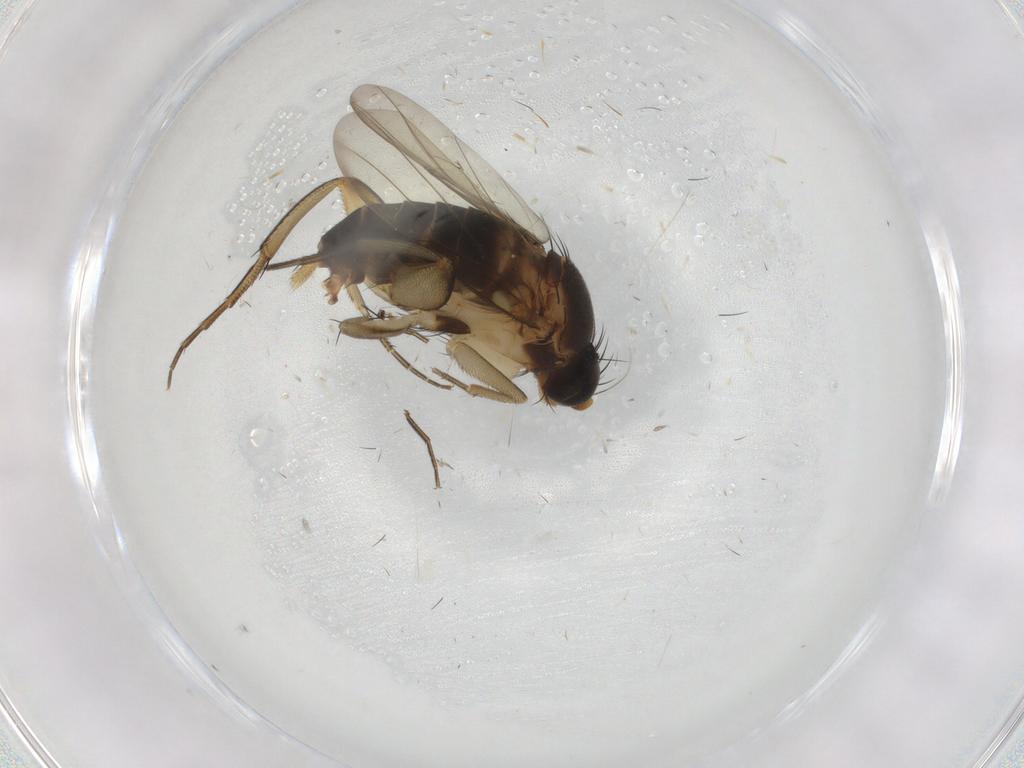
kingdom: Animalia
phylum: Arthropoda
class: Insecta
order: Diptera
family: Phoridae
